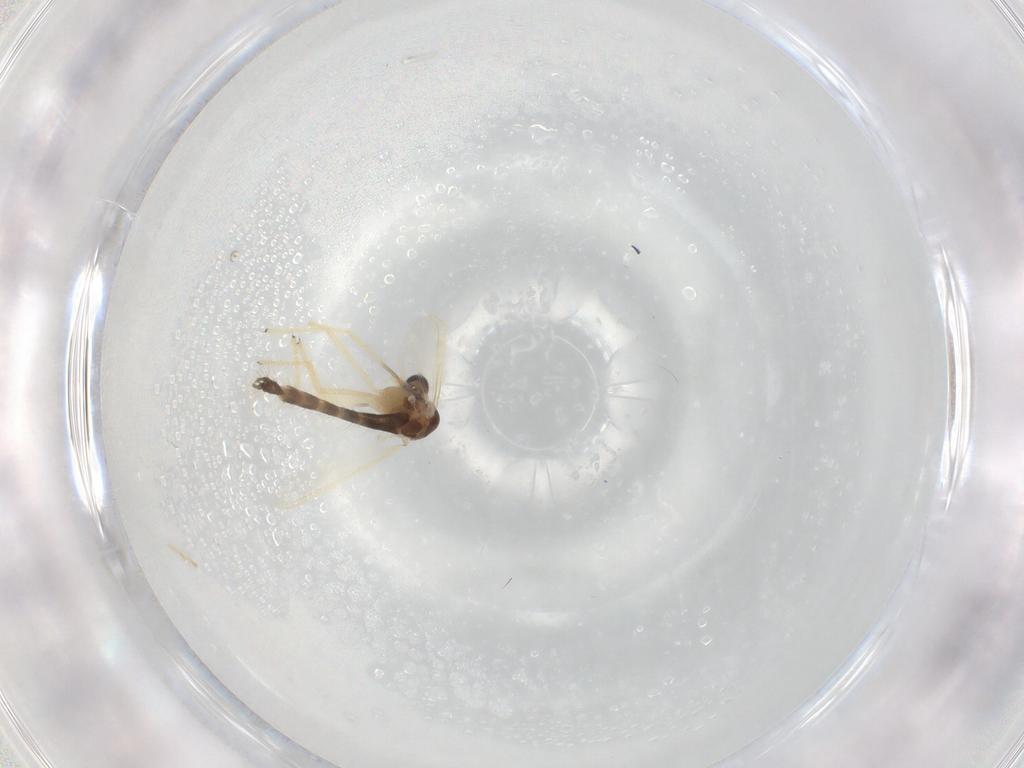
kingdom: Animalia
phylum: Arthropoda
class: Insecta
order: Diptera
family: Chironomidae
